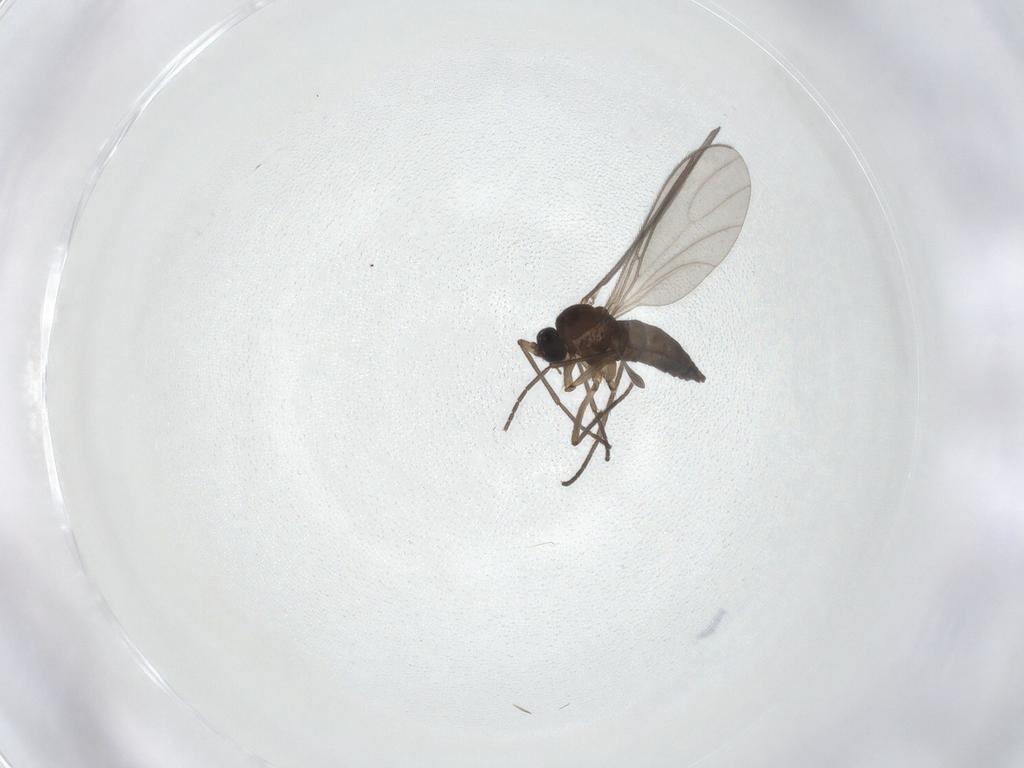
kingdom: Animalia
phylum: Arthropoda
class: Insecta
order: Diptera
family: Sciaridae
